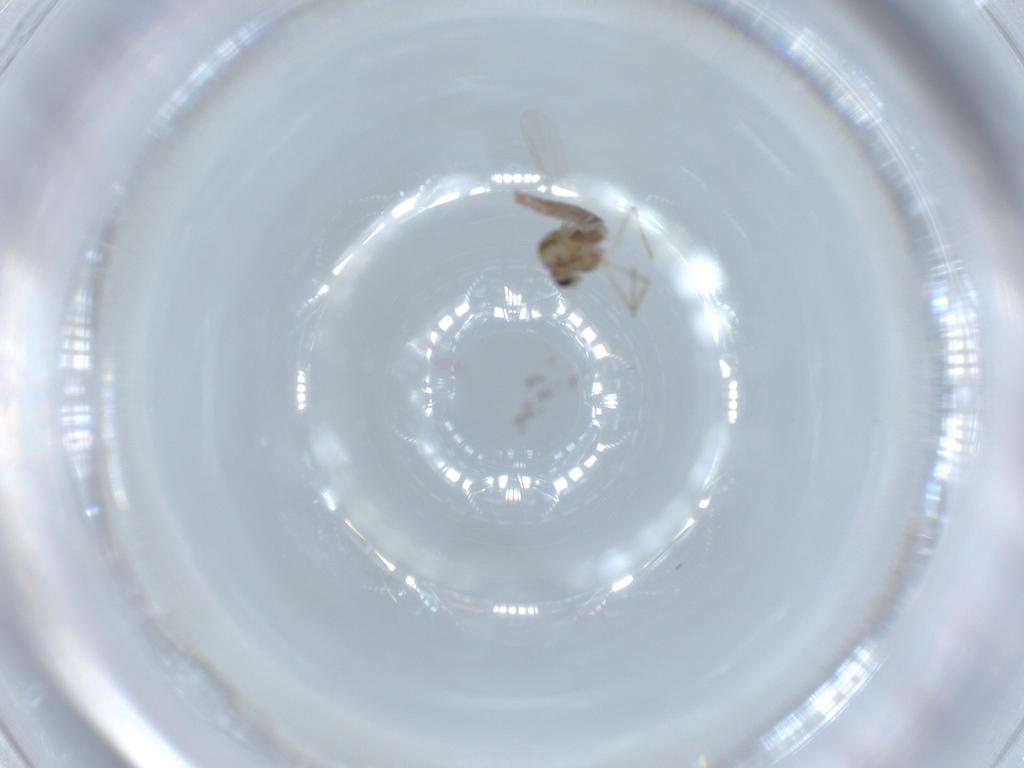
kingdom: Animalia
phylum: Arthropoda
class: Insecta
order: Diptera
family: Chironomidae
